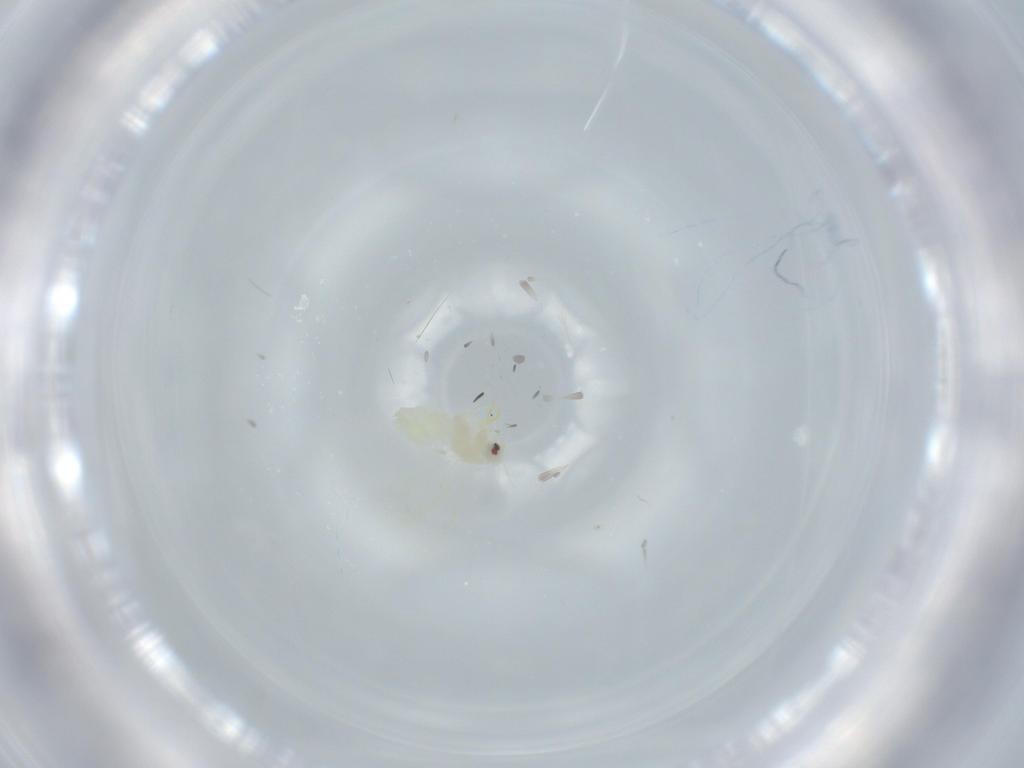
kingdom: Animalia
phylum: Arthropoda
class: Insecta
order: Hemiptera
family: Aleyrodidae
